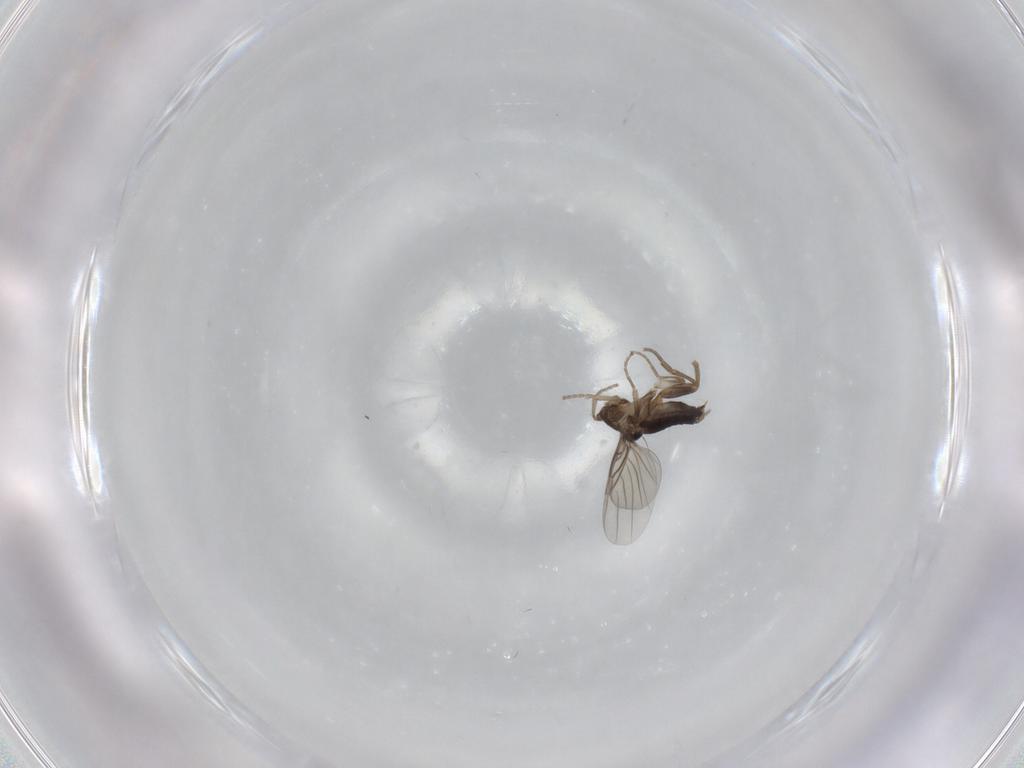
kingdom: Animalia
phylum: Arthropoda
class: Insecta
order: Diptera
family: Phoridae
